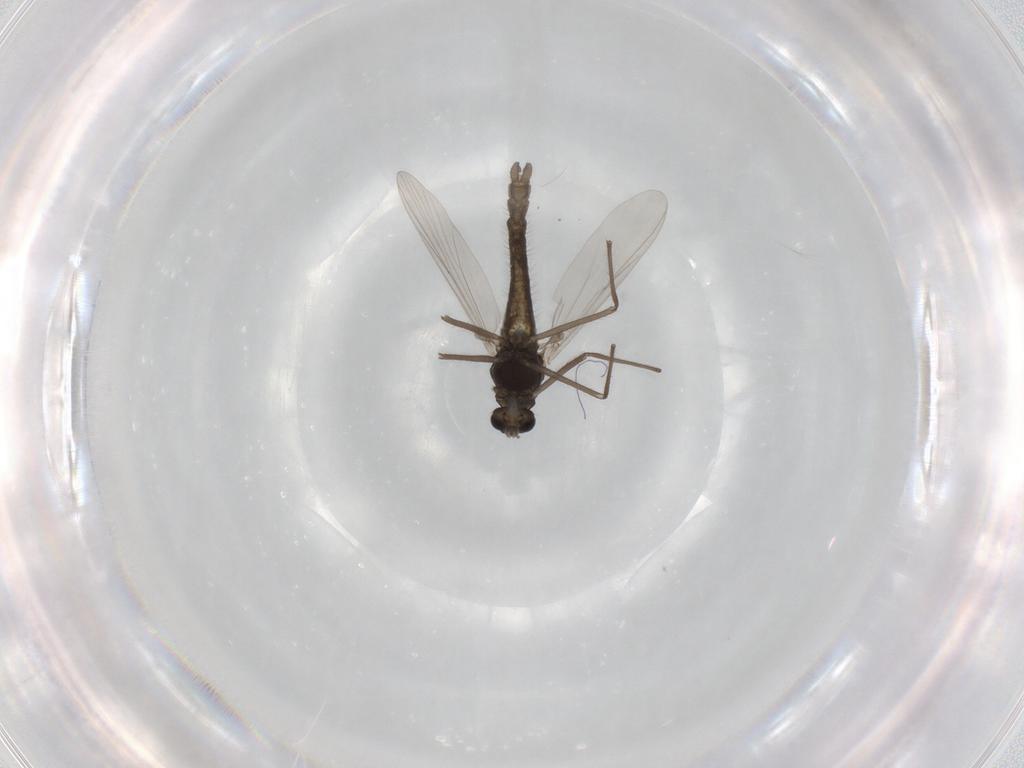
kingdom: Animalia
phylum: Arthropoda
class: Insecta
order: Diptera
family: Chironomidae
